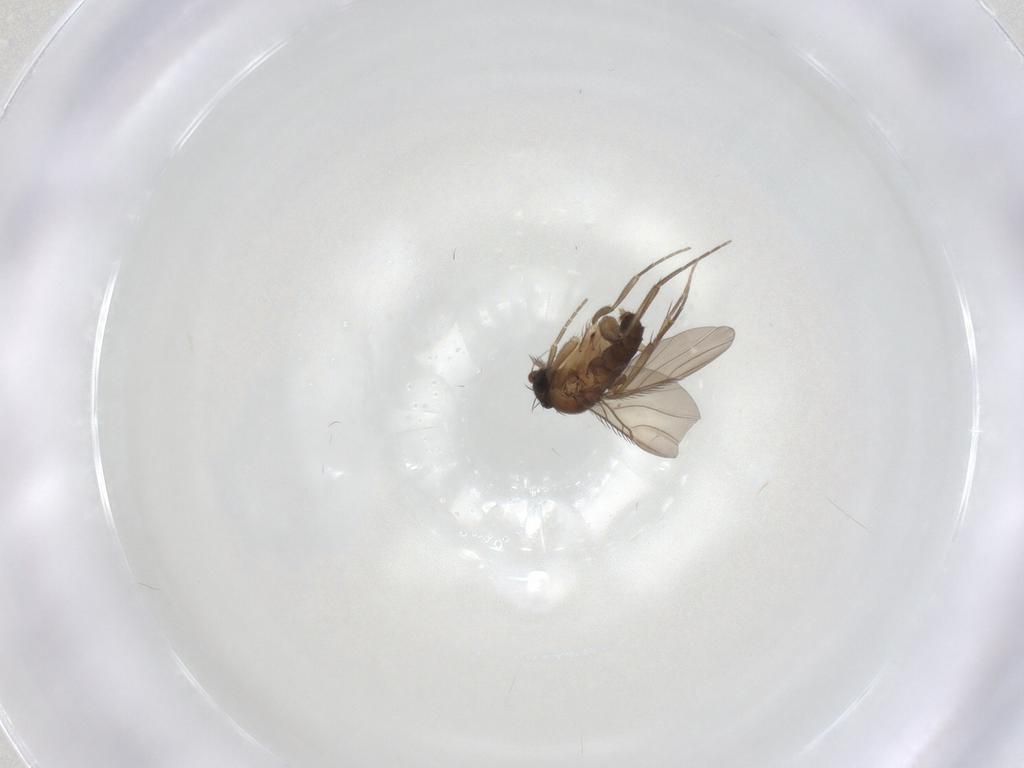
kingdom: Animalia
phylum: Arthropoda
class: Insecta
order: Diptera
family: Phoridae
